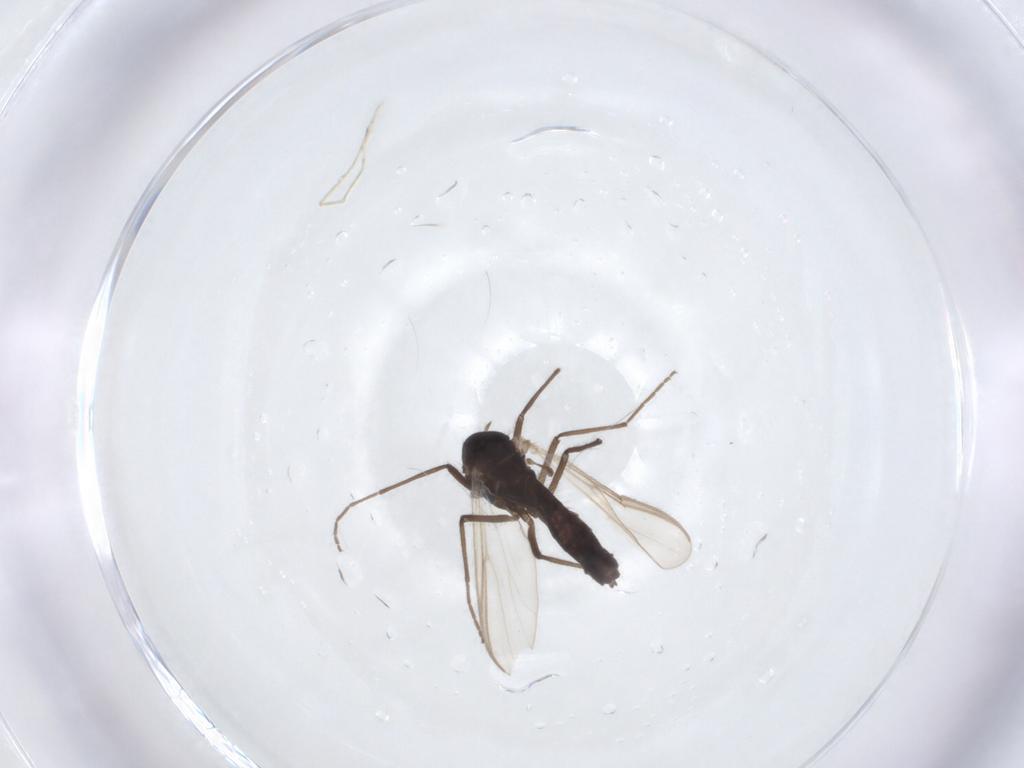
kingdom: Animalia
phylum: Arthropoda
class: Insecta
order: Diptera
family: Chironomidae
